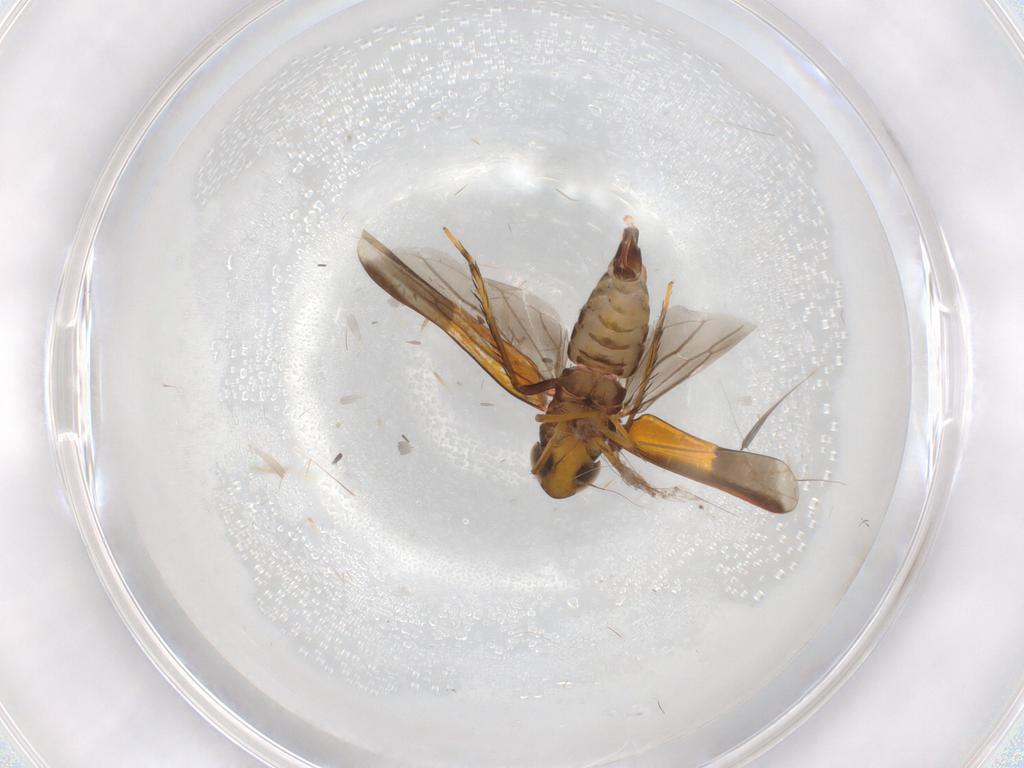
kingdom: Animalia
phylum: Arthropoda
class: Insecta
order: Hemiptera
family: Cicadellidae
